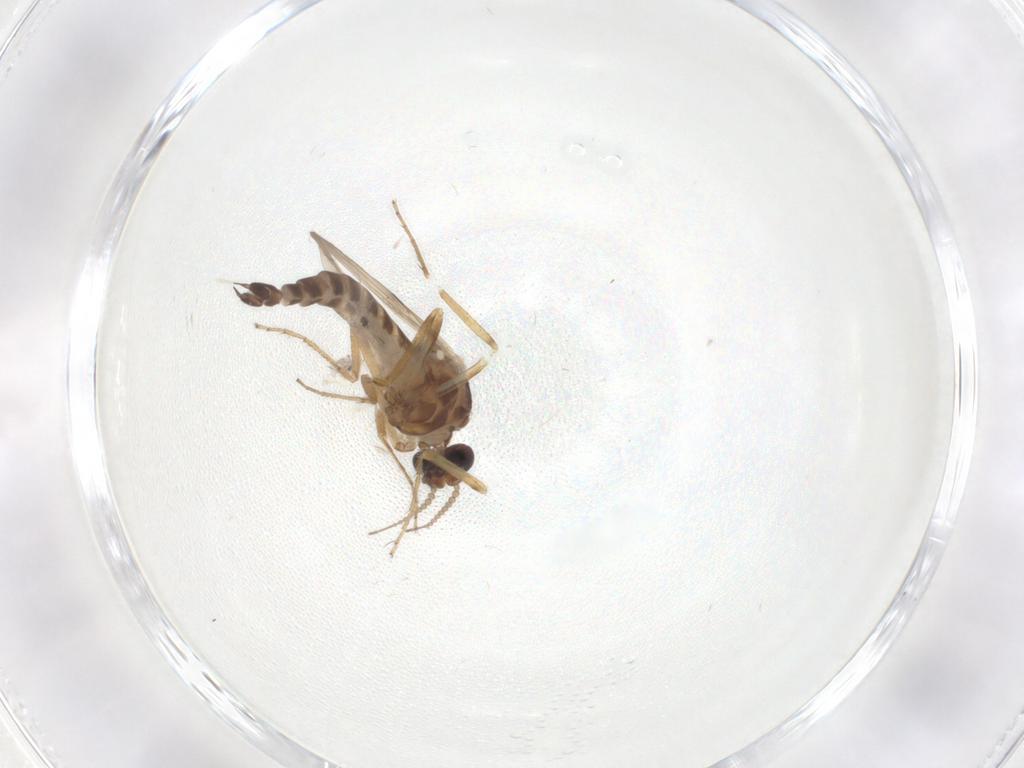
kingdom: Animalia
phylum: Arthropoda
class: Insecta
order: Diptera
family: Ceratopogonidae
